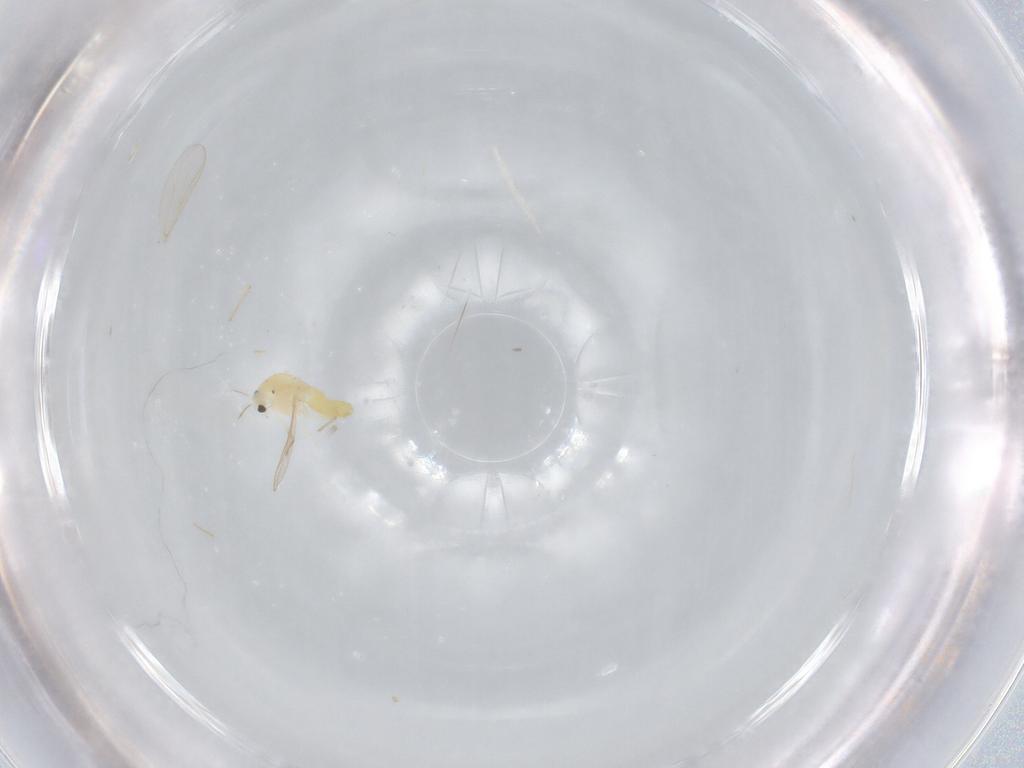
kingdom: Animalia
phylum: Arthropoda
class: Insecta
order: Diptera
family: Chironomidae
